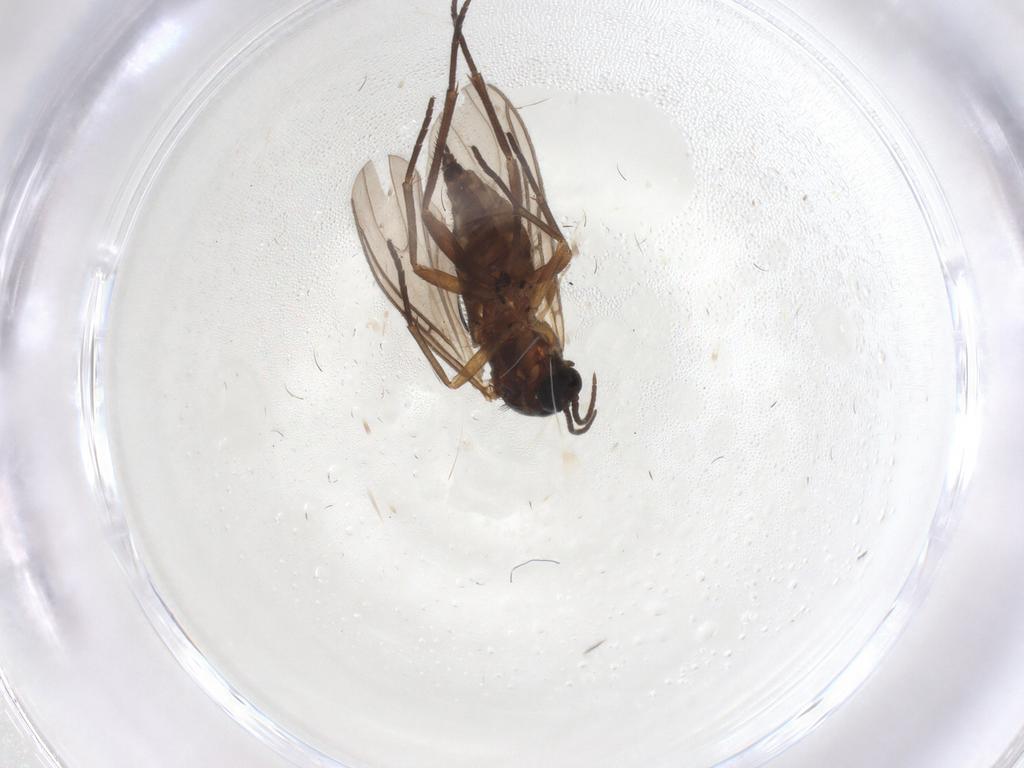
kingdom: Animalia
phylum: Arthropoda
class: Insecta
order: Diptera
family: Sciaridae
